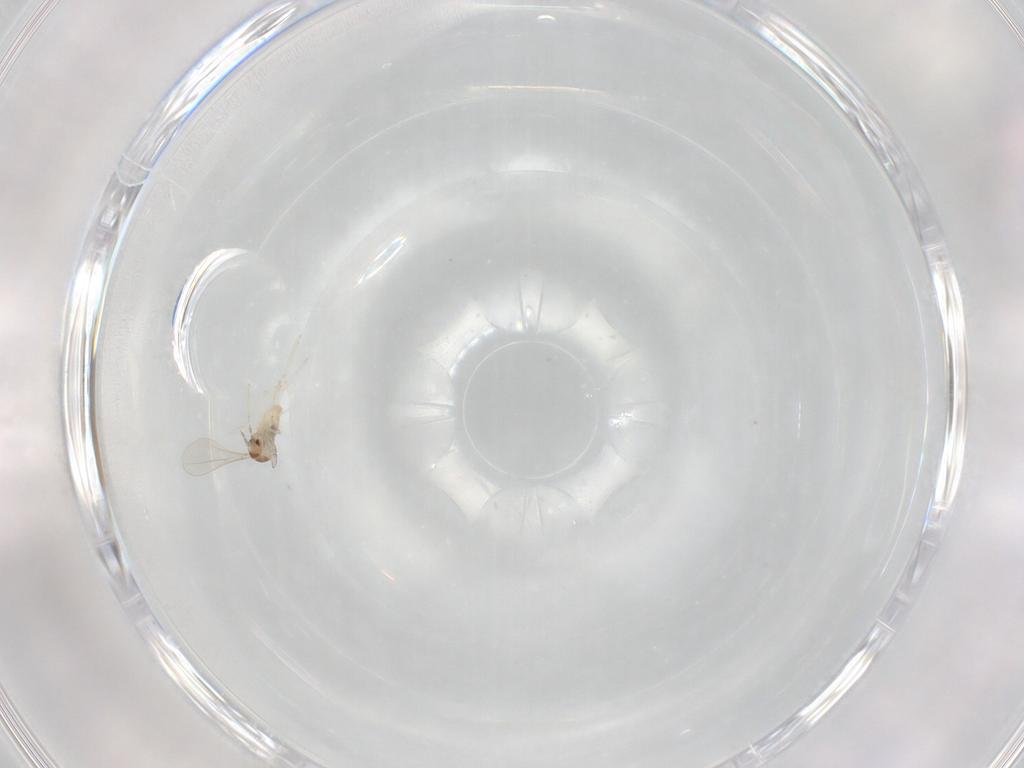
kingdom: Animalia
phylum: Arthropoda
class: Insecta
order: Diptera
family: Cecidomyiidae
